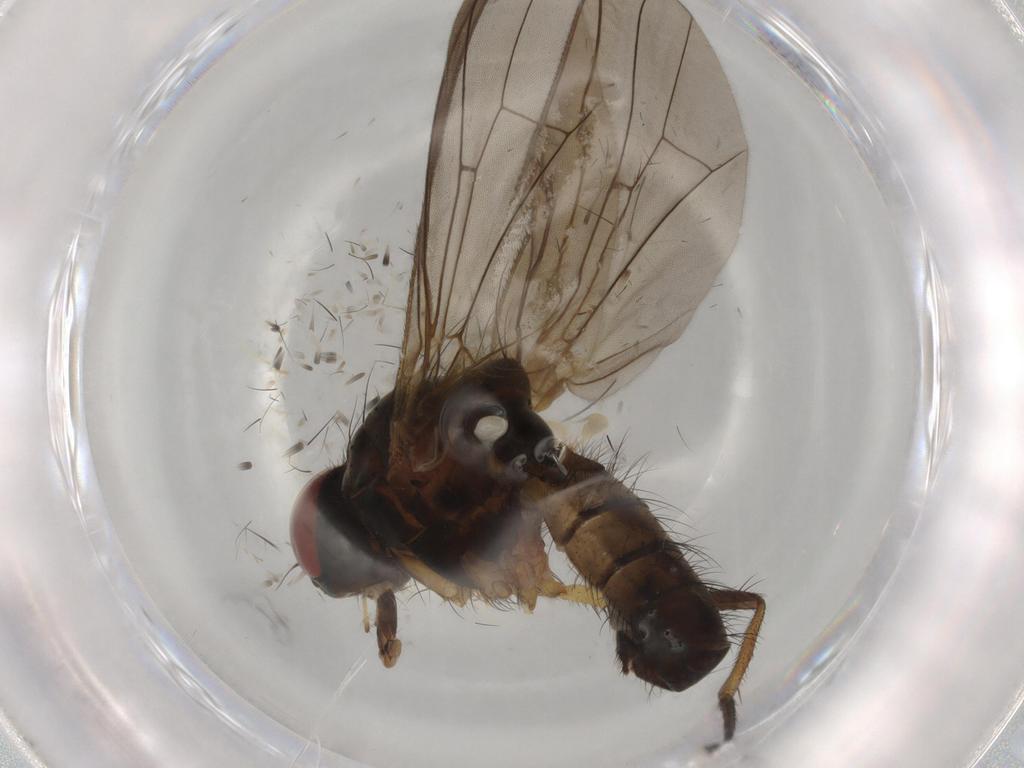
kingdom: Animalia
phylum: Arthropoda
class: Insecta
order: Diptera
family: Anthomyiidae
